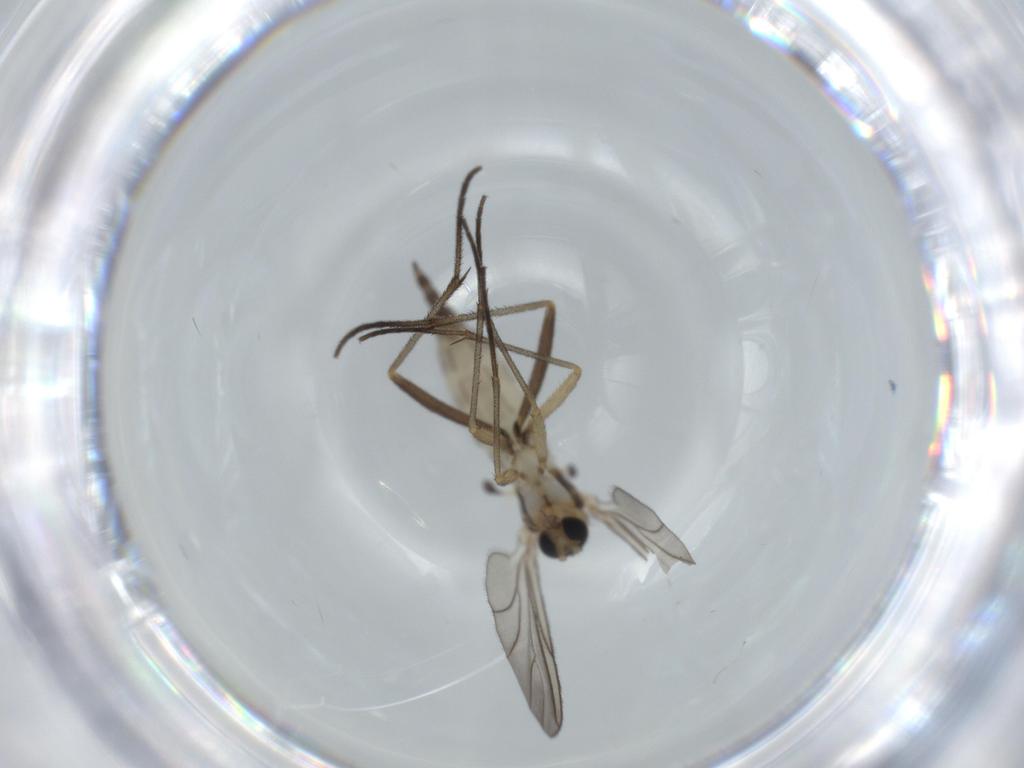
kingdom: Animalia
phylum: Arthropoda
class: Insecta
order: Diptera
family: Sciaridae
